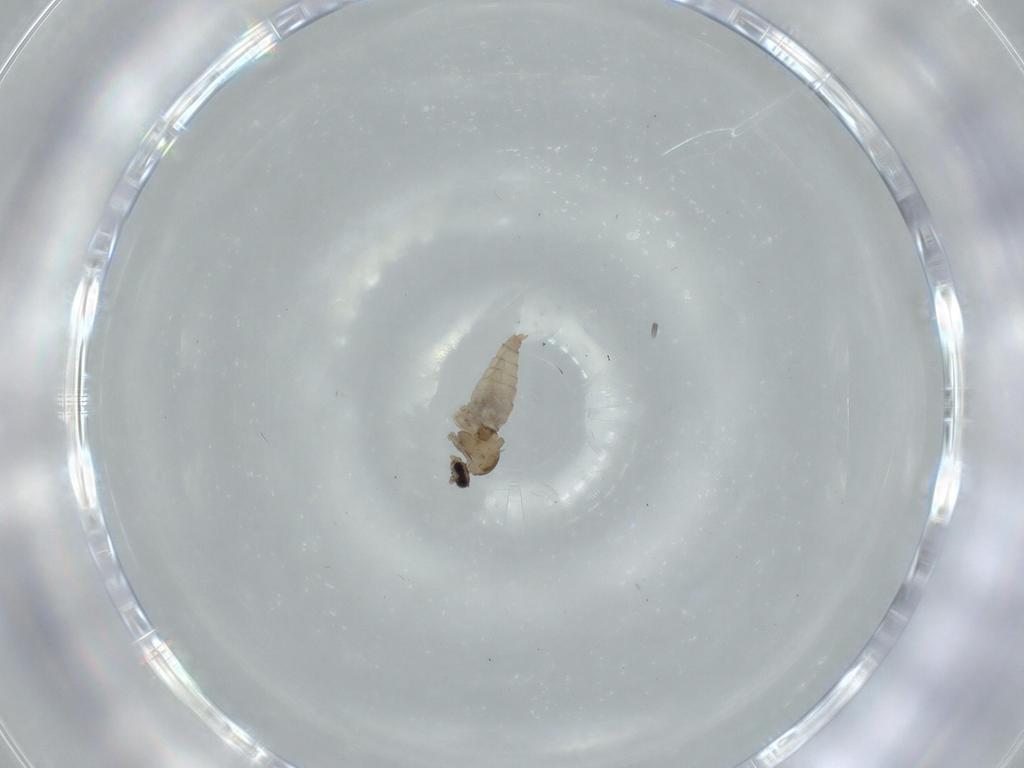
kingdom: Animalia
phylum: Arthropoda
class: Insecta
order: Diptera
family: Cecidomyiidae
